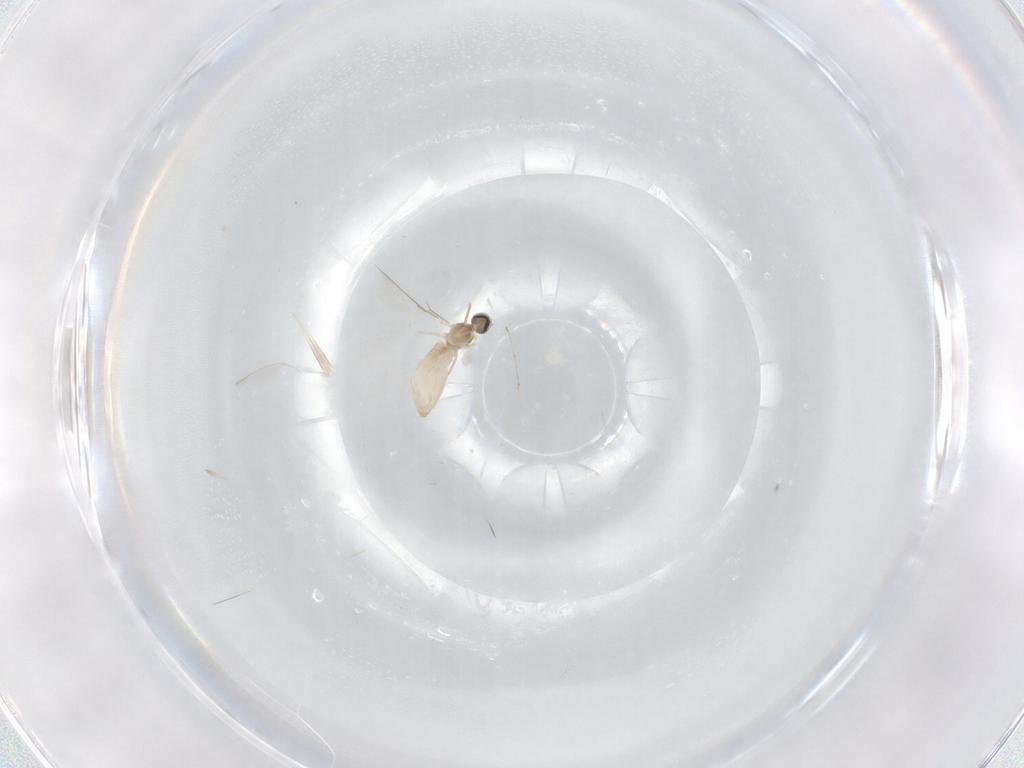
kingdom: Animalia
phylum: Arthropoda
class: Insecta
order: Diptera
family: Cecidomyiidae
